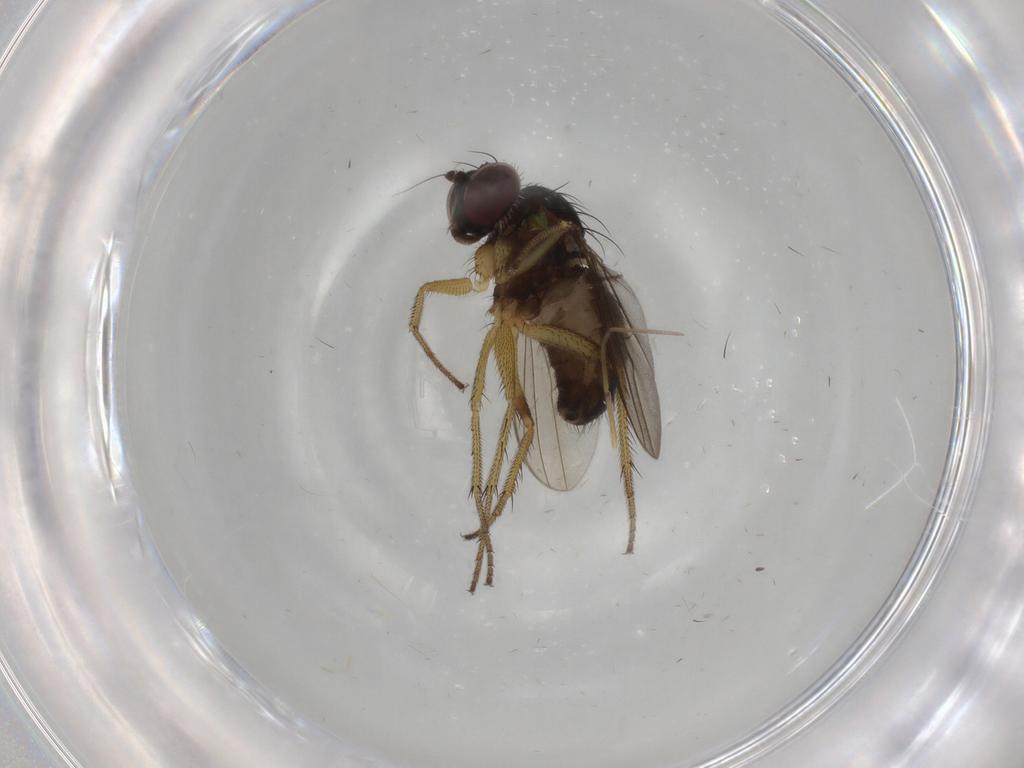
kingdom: Animalia
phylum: Arthropoda
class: Insecta
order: Diptera
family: Dolichopodidae
